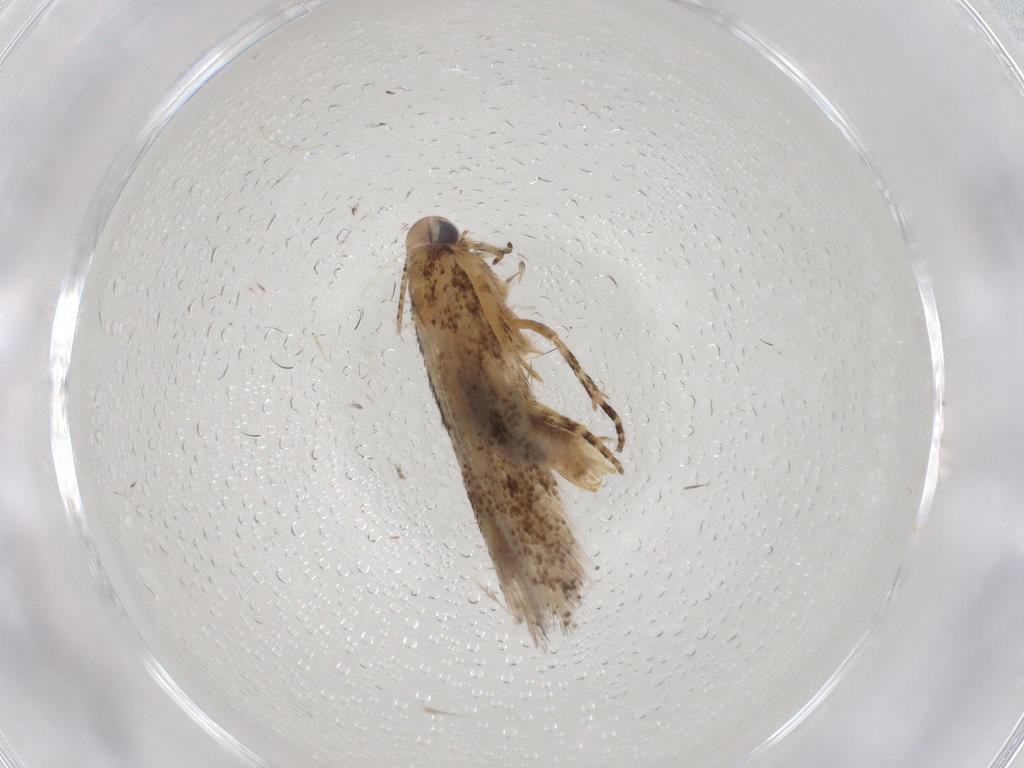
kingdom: Animalia
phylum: Arthropoda
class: Insecta
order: Lepidoptera
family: Gelechiidae
